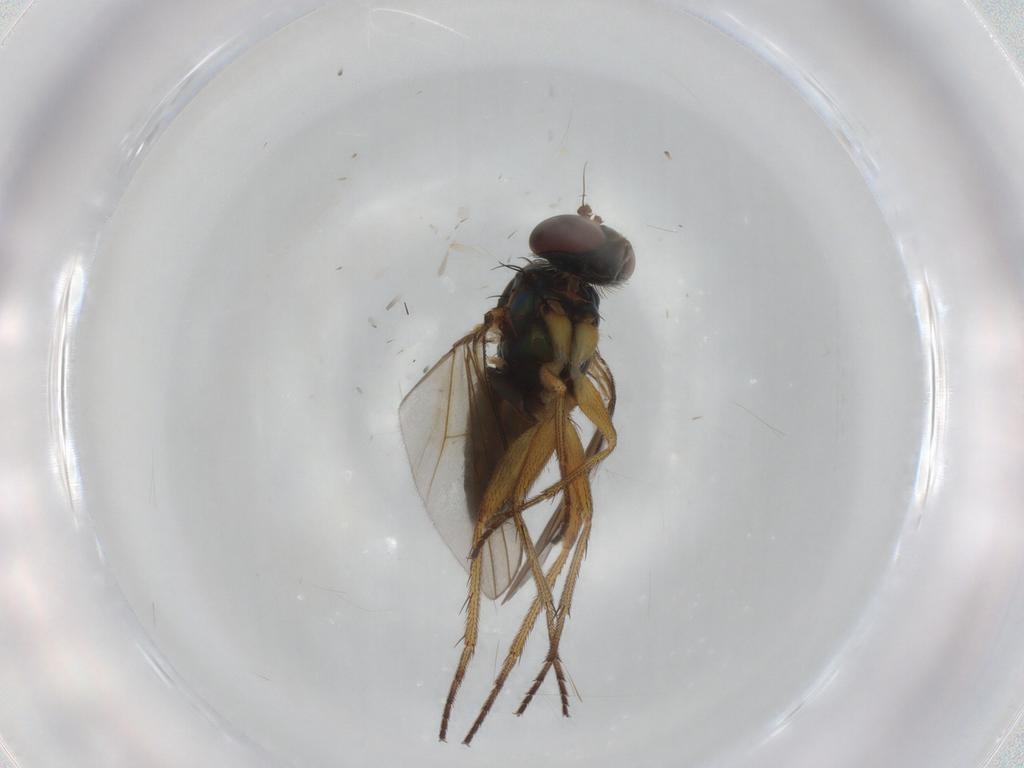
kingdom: Animalia
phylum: Arthropoda
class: Insecta
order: Diptera
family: Dolichopodidae
